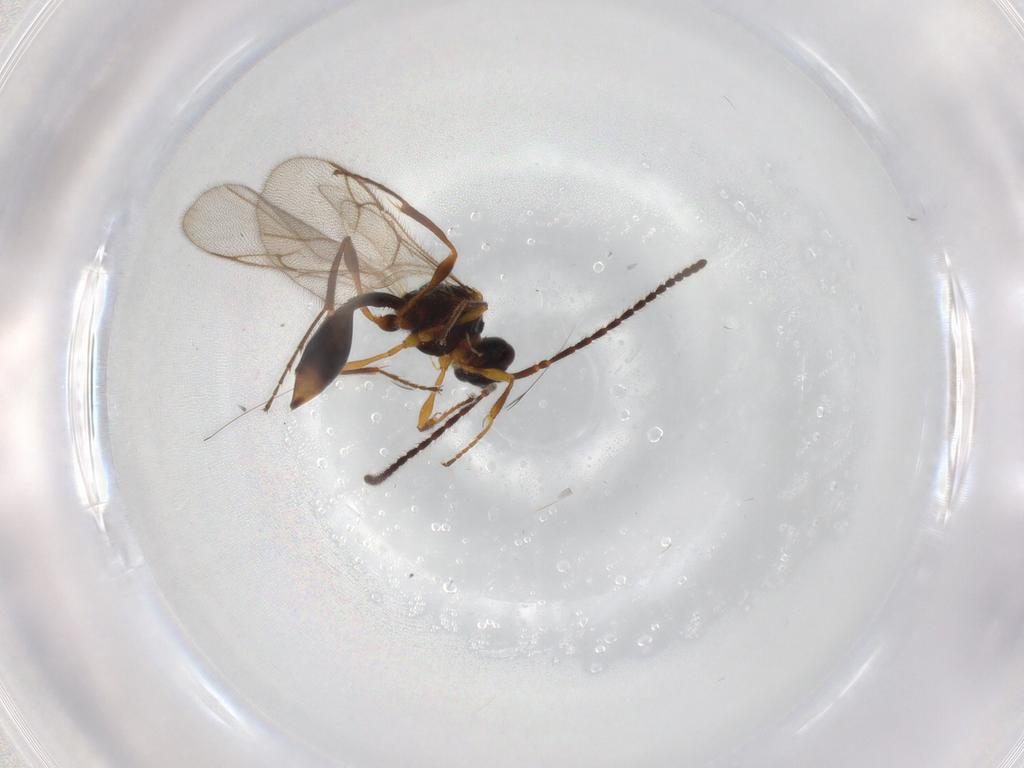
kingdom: Animalia
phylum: Arthropoda
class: Insecta
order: Hymenoptera
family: Diapriidae
